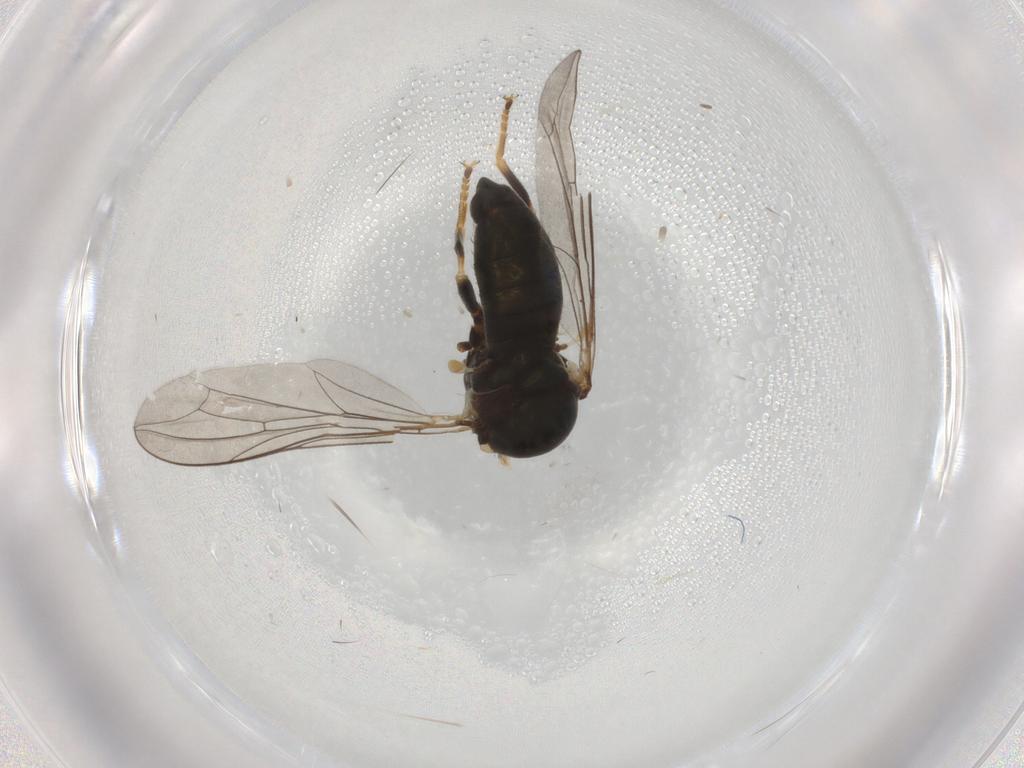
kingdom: Animalia
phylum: Arthropoda
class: Insecta
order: Diptera
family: Pipunculidae
